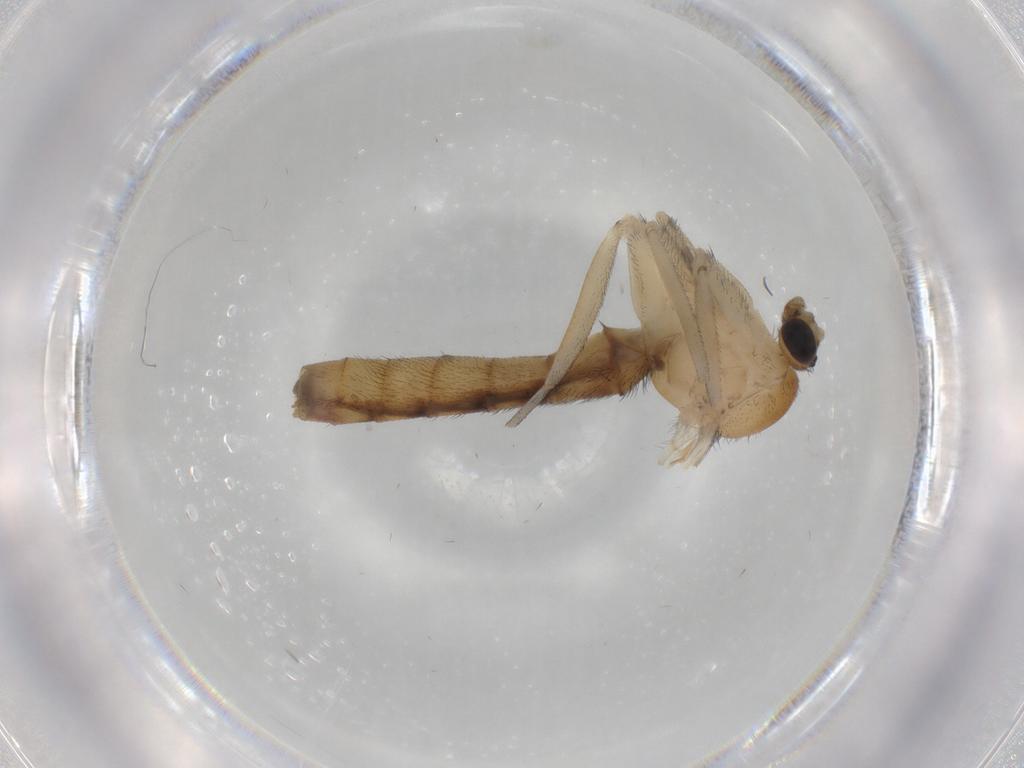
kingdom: Animalia
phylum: Arthropoda
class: Insecta
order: Diptera
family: Keroplatidae
